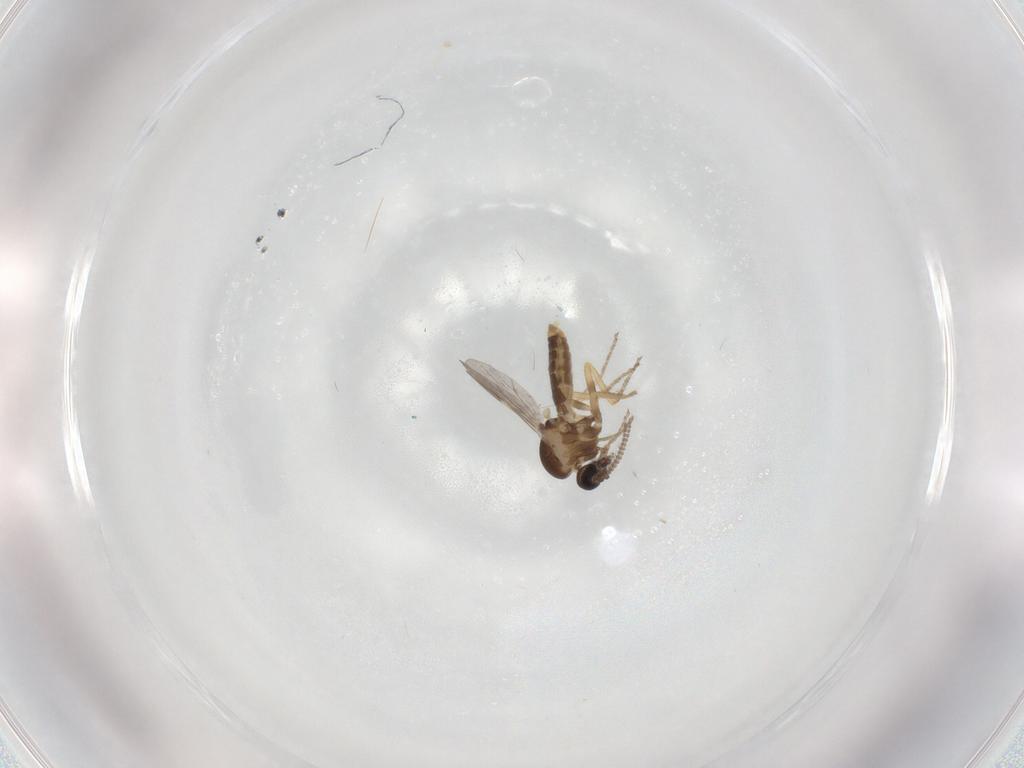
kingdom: Animalia
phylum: Arthropoda
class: Insecta
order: Diptera
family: Ceratopogonidae
